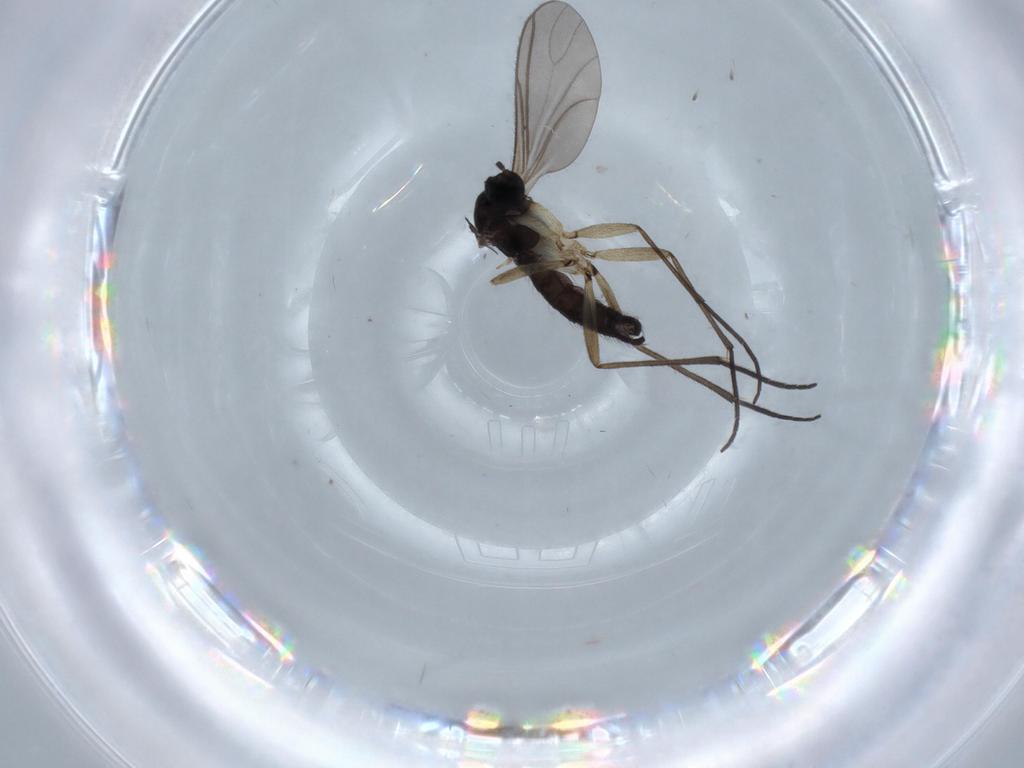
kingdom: Animalia
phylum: Arthropoda
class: Insecta
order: Diptera
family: Sciaridae
